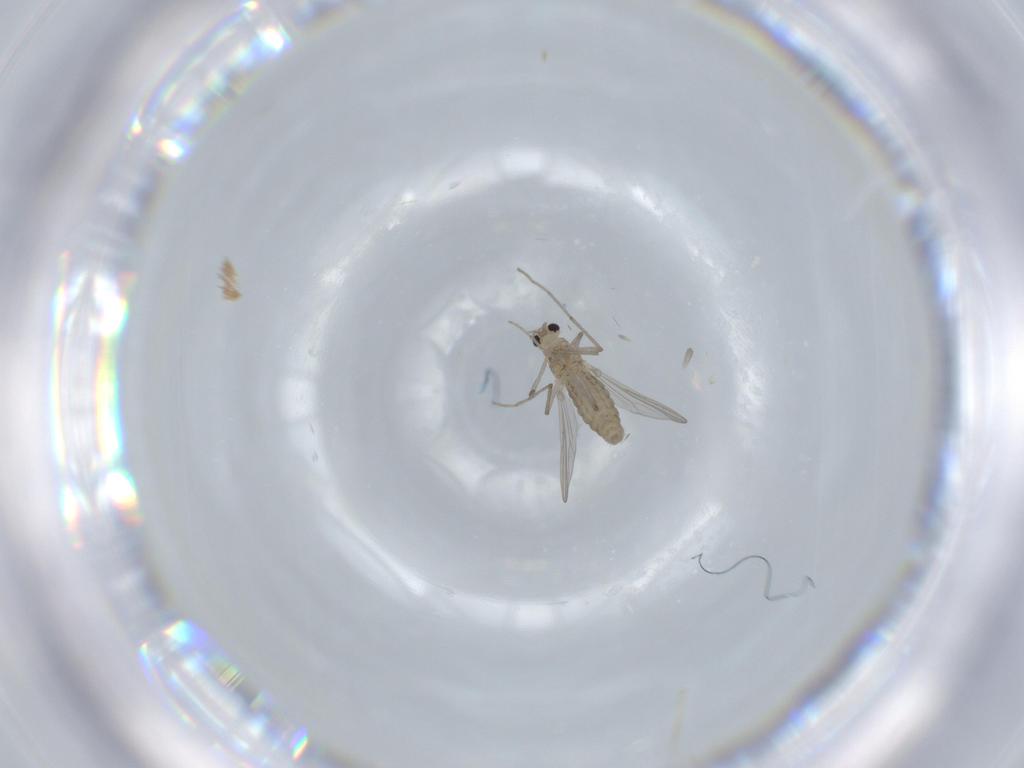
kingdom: Animalia
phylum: Arthropoda
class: Insecta
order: Diptera
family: Chironomidae
